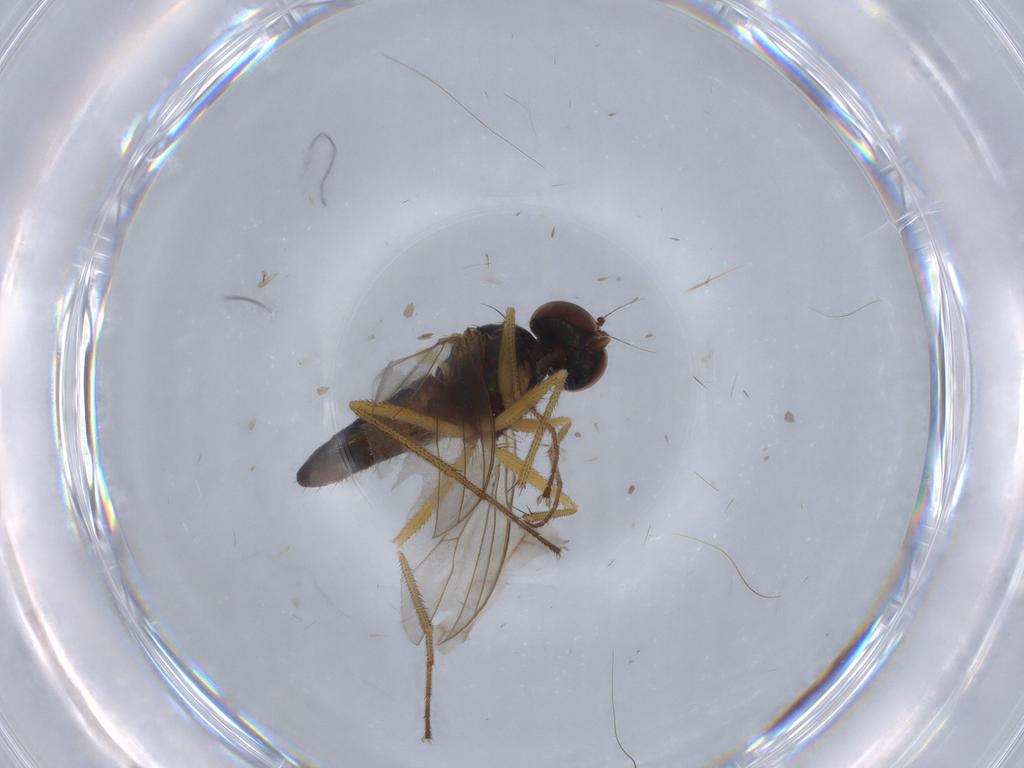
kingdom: Animalia
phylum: Arthropoda
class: Insecta
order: Diptera
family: Dolichopodidae
